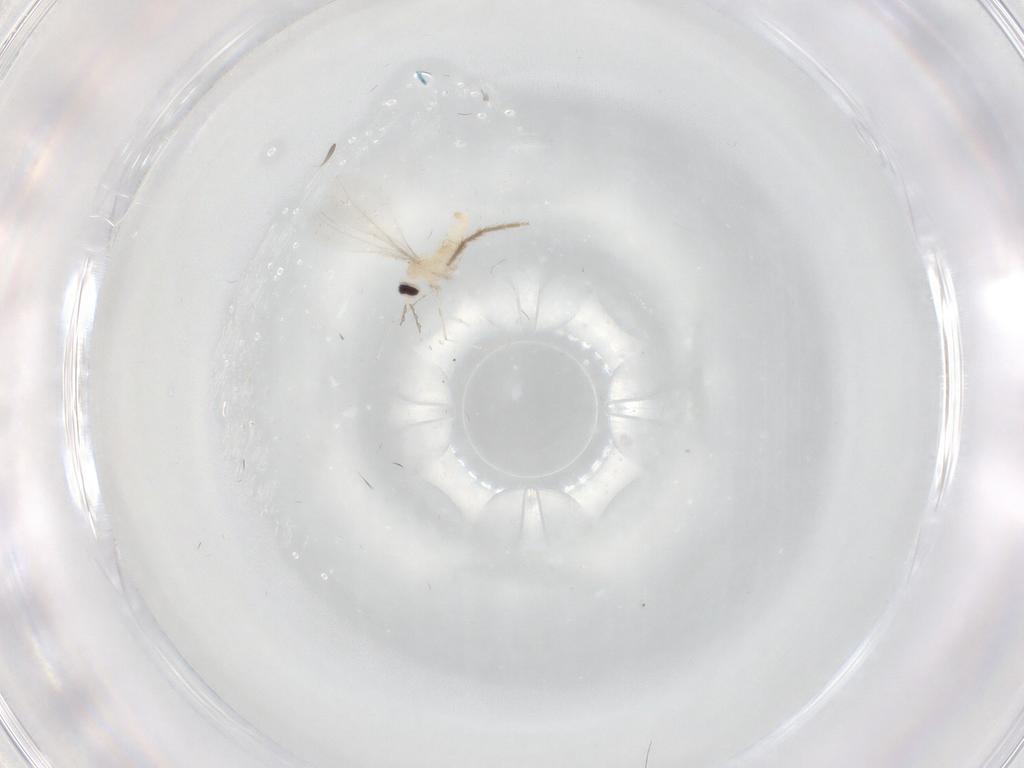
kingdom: Animalia
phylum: Arthropoda
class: Insecta
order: Diptera
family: Cecidomyiidae
